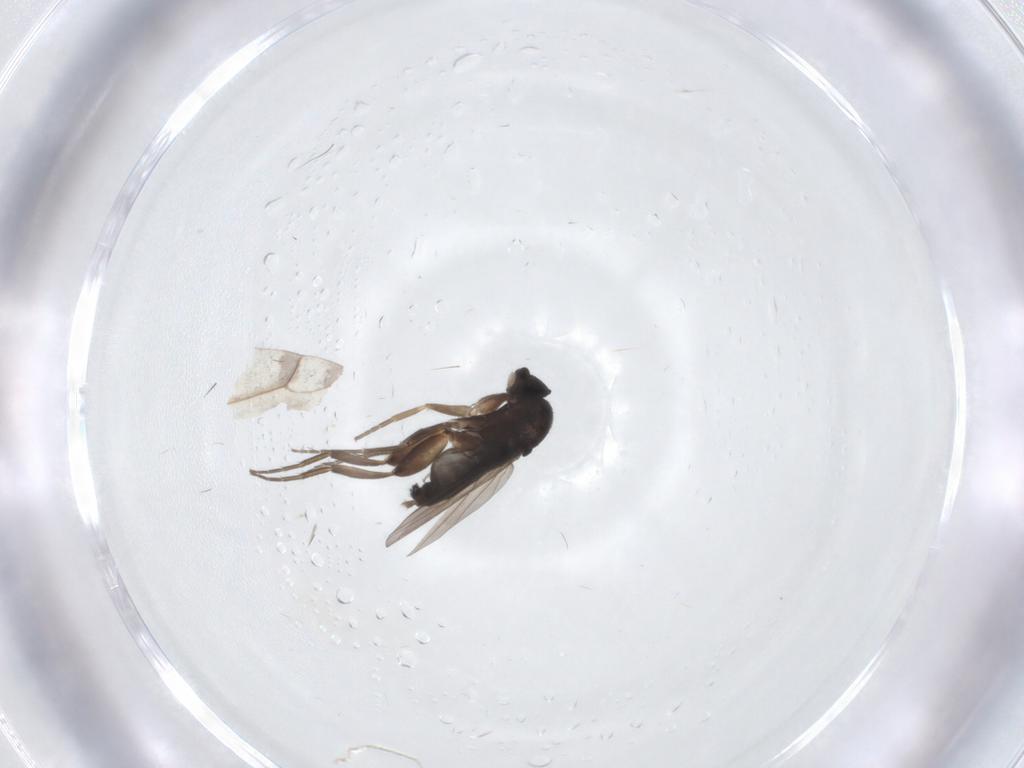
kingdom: Animalia
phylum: Arthropoda
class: Insecta
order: Diptera
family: Phoridae
